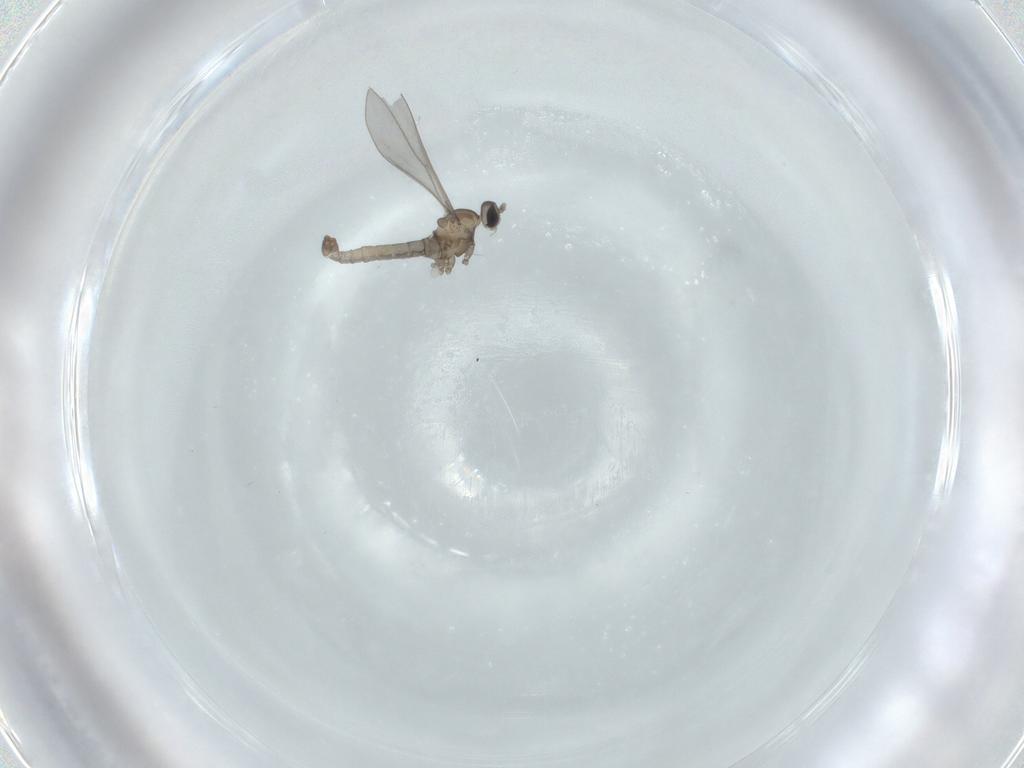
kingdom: Animalia
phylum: Arthropoda
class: Insecta
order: Diptera
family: Cecidomyiidae
